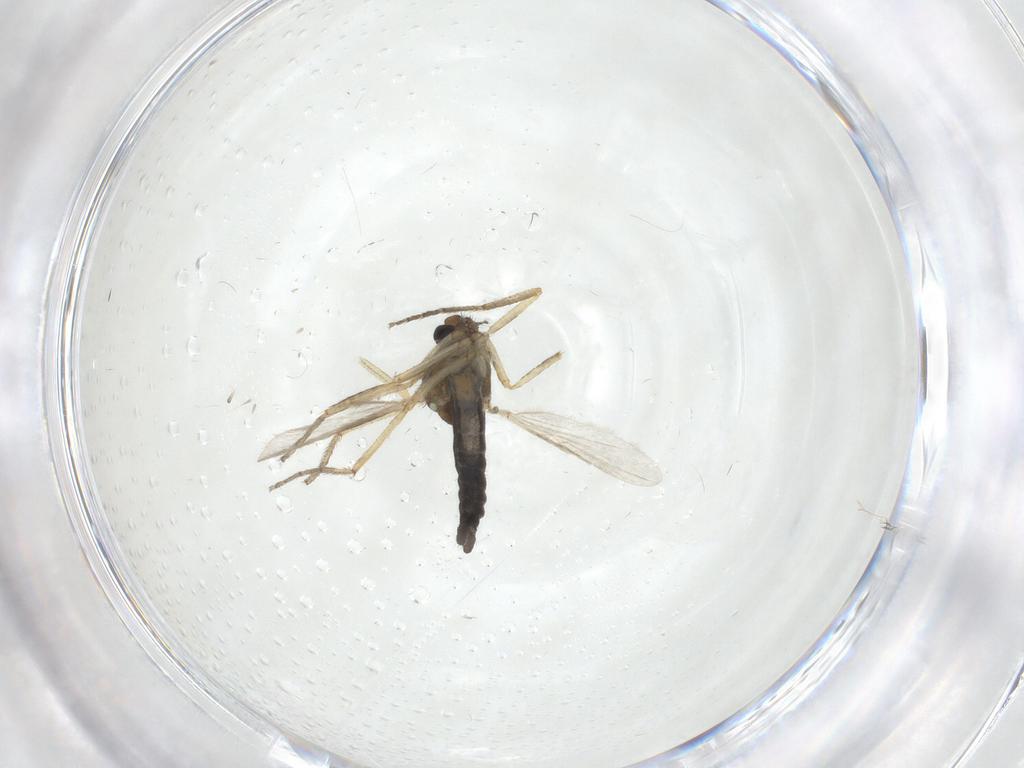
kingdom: Animalia
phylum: Arthropoda
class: Insecta
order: Diptera
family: Ceratopogonidae
